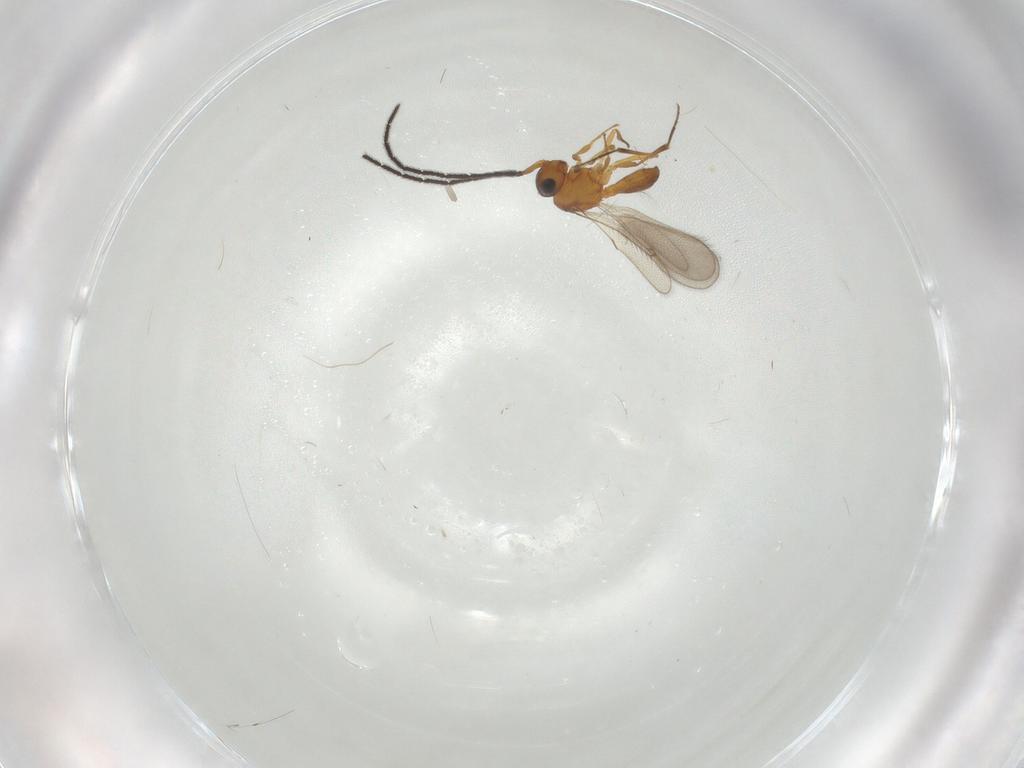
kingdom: Animalia
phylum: Arthropoda
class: Insecta
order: Hymenoptera
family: Scelionidae
